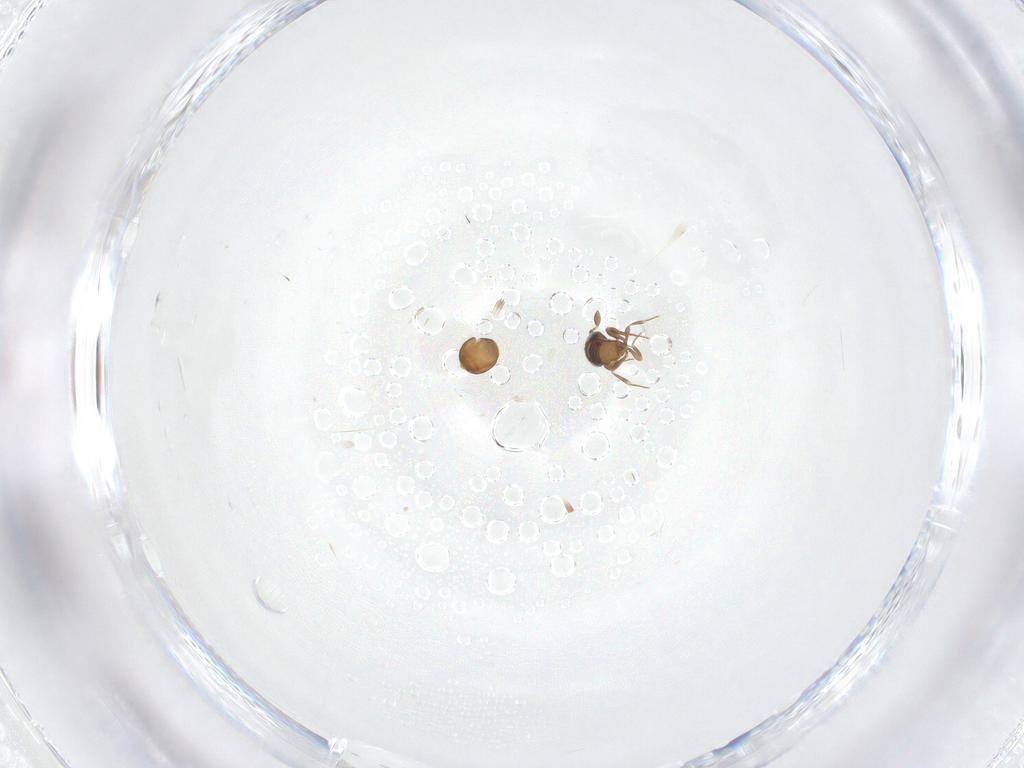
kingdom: Animalia
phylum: Arthropoda
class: Insecta
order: Hymenoptera
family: Scelionidae
